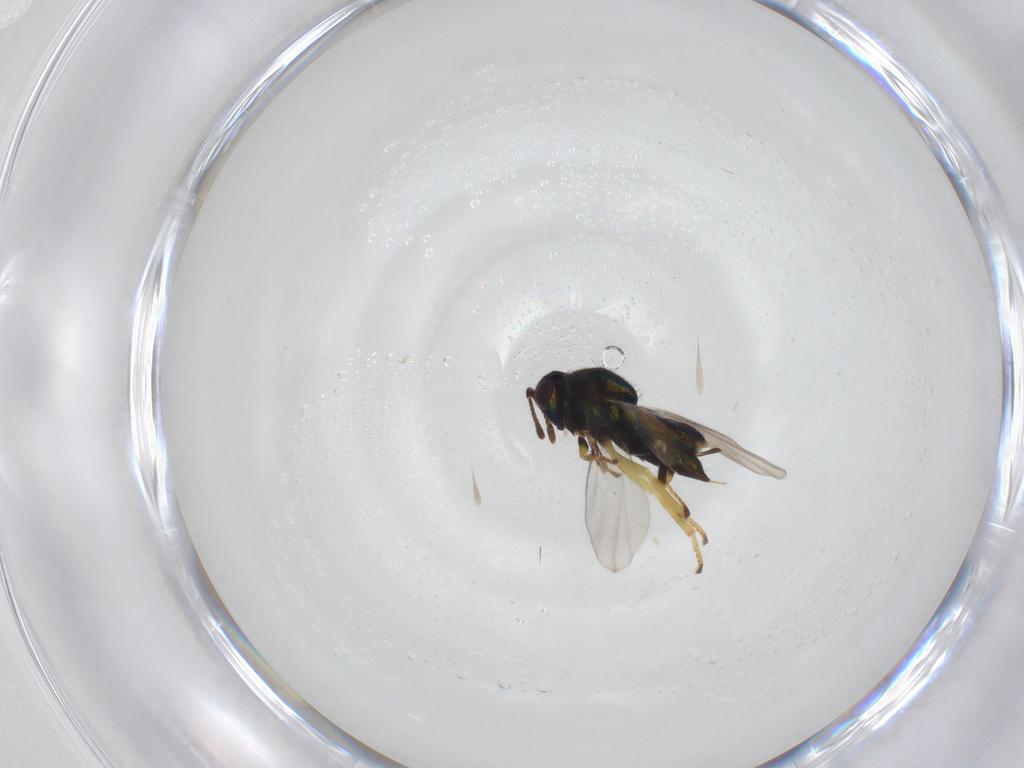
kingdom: Animalia
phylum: Arthropoda
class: Insecta
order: Hymenoptera
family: Encyrtidae
